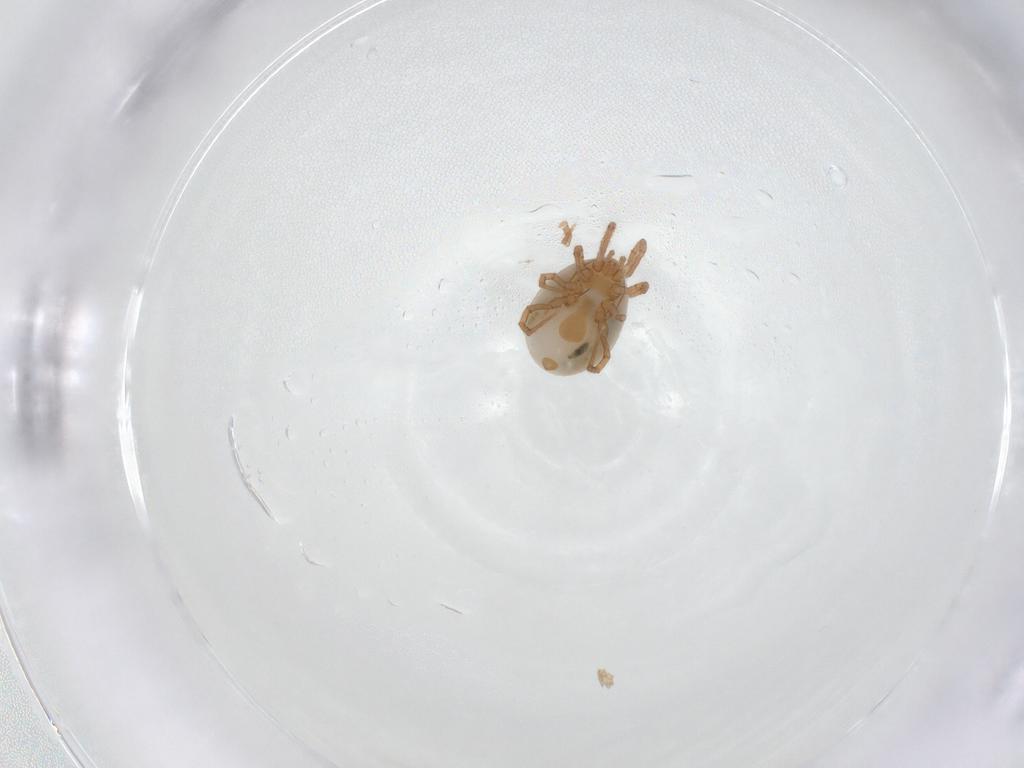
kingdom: Animalia
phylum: Arthropoda
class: Arachnida
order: Mesostigmata
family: Parasitidae
